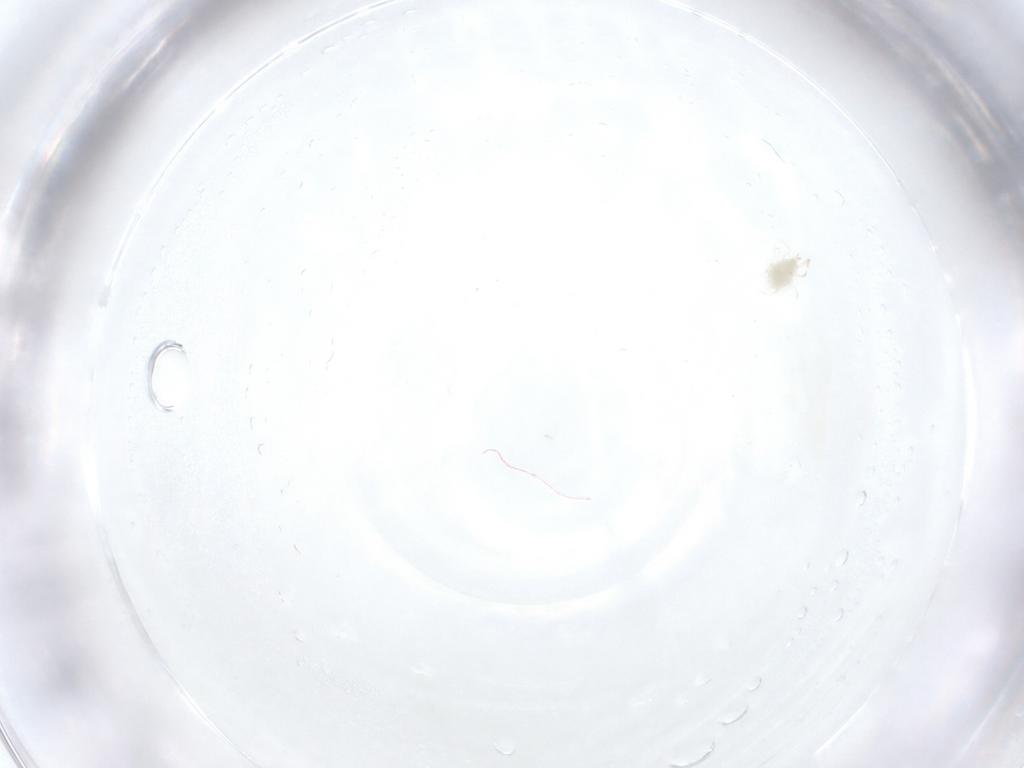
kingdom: Animalia
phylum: Arthropoda
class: Arachnida
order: Mesostigmata
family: Phytoseiidae
